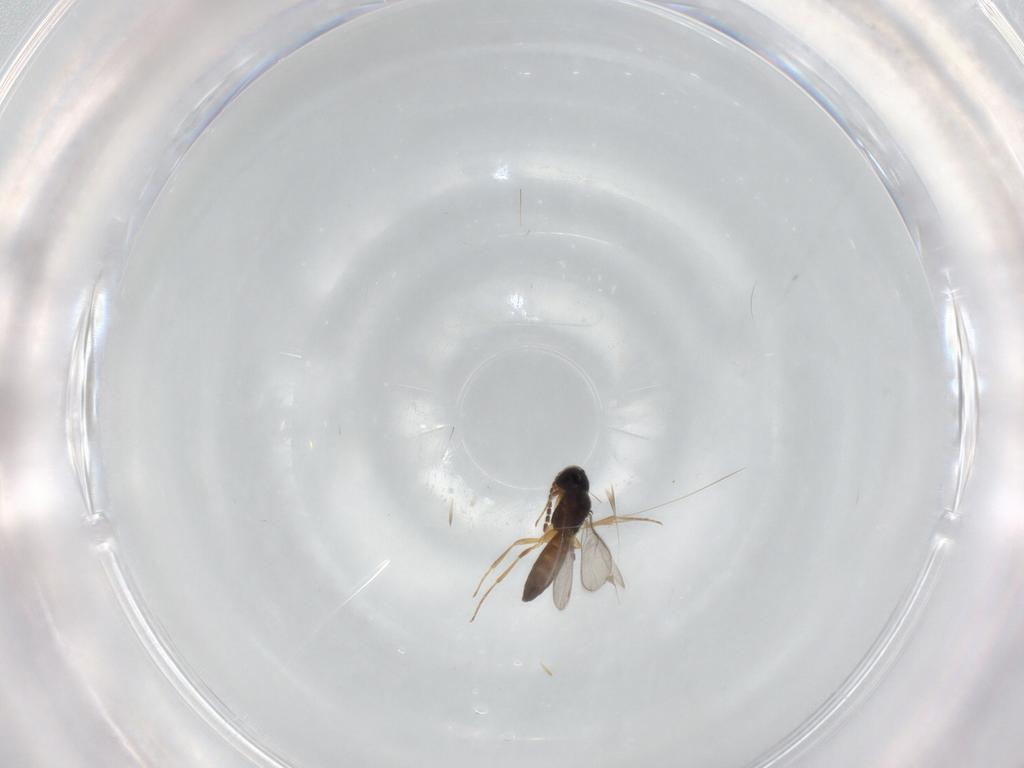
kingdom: Animalia
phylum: Arthropoda
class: Insecta
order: Hymenoptera
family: Scelionidae
